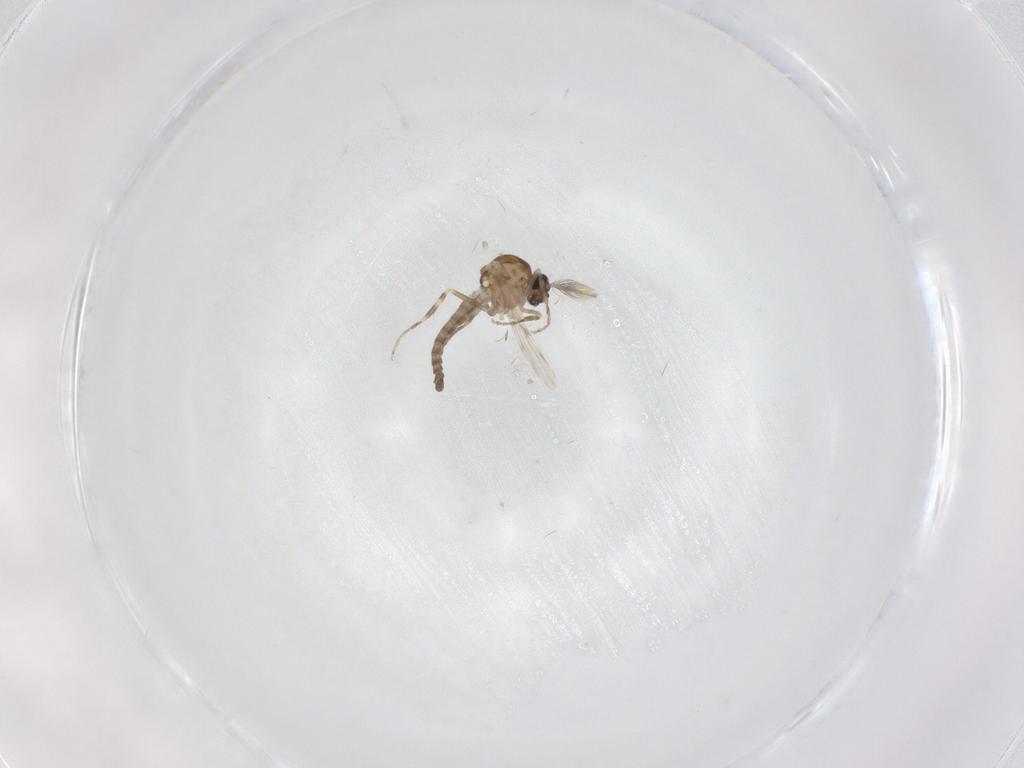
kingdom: Animalia
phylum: Arthropoda
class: Insecta
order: Diptera
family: Ceratopogonidae
